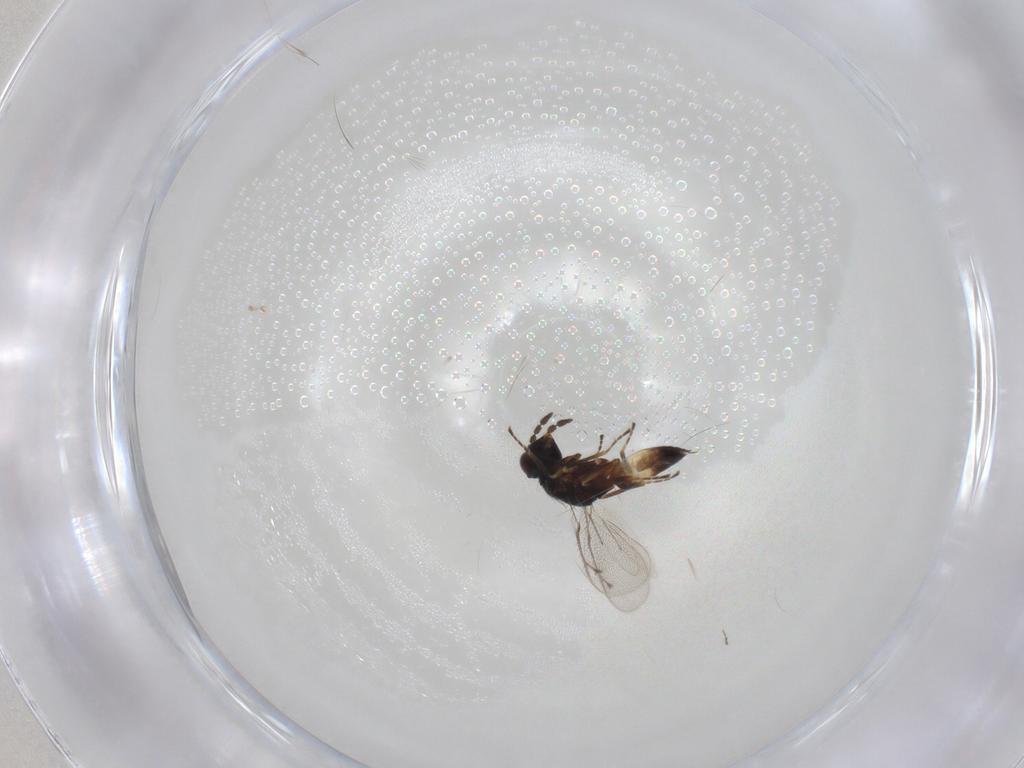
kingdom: Animalia
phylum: Arthropoda
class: Insecta
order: Hymenoptera
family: Eulophidae
